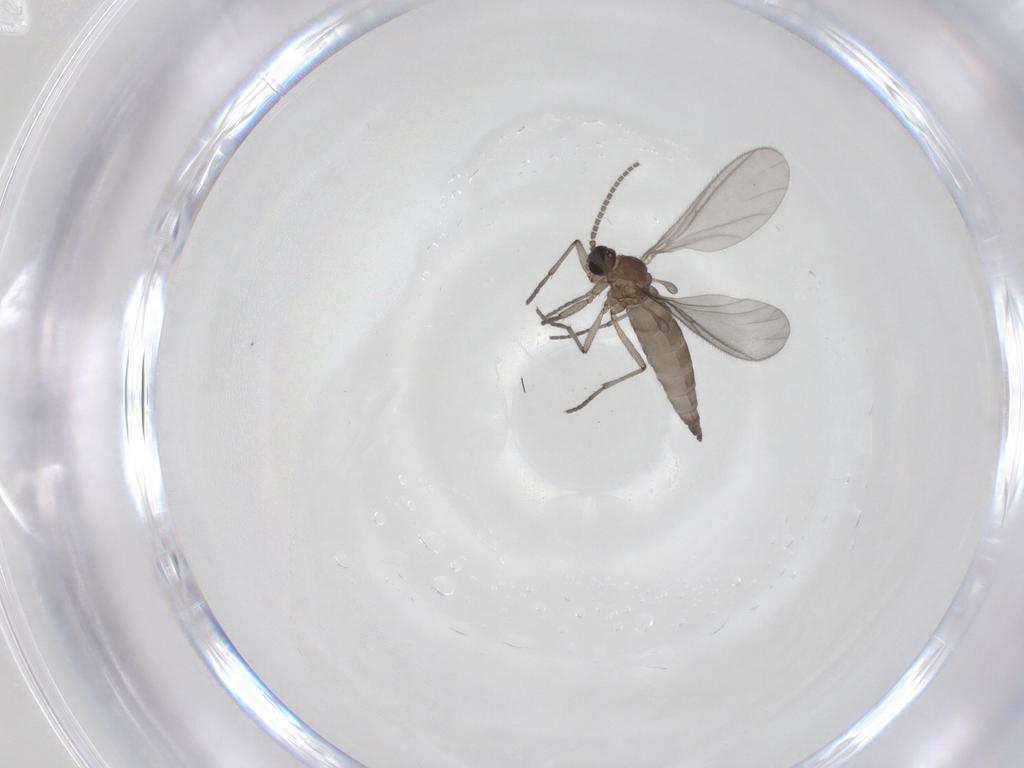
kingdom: Animalia
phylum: Arthropoda
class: Insecta
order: Diptera
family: Sciaridae
